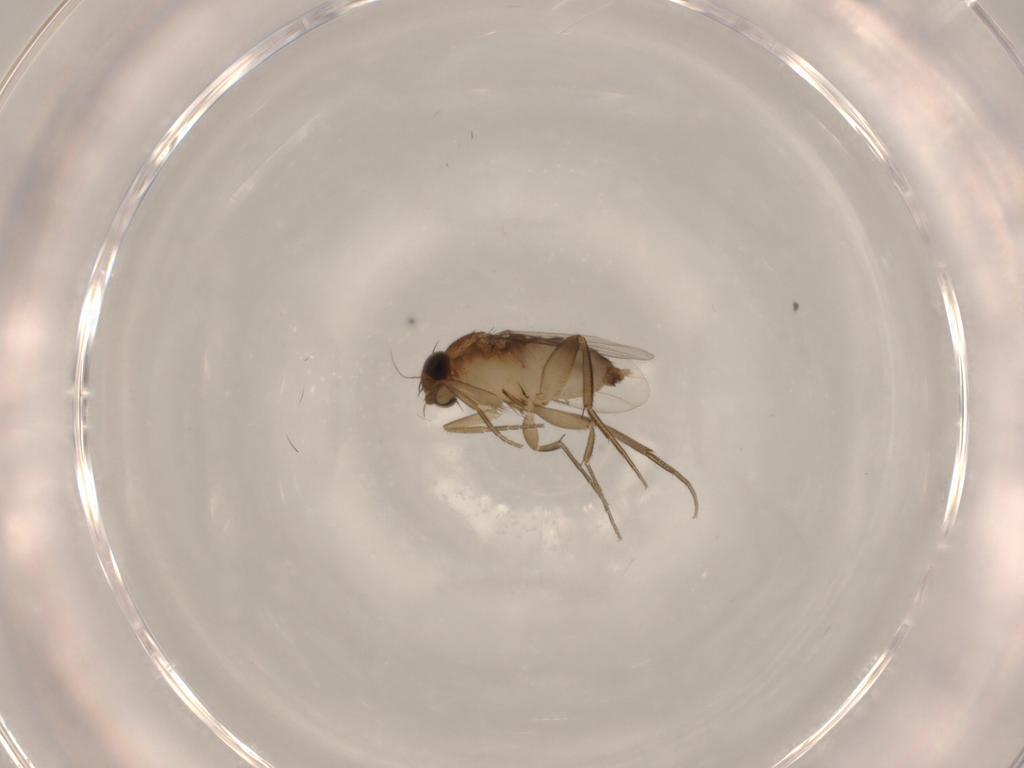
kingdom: Animalia
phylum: Arthropoda
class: Insecta
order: Diptera
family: Phoridae
